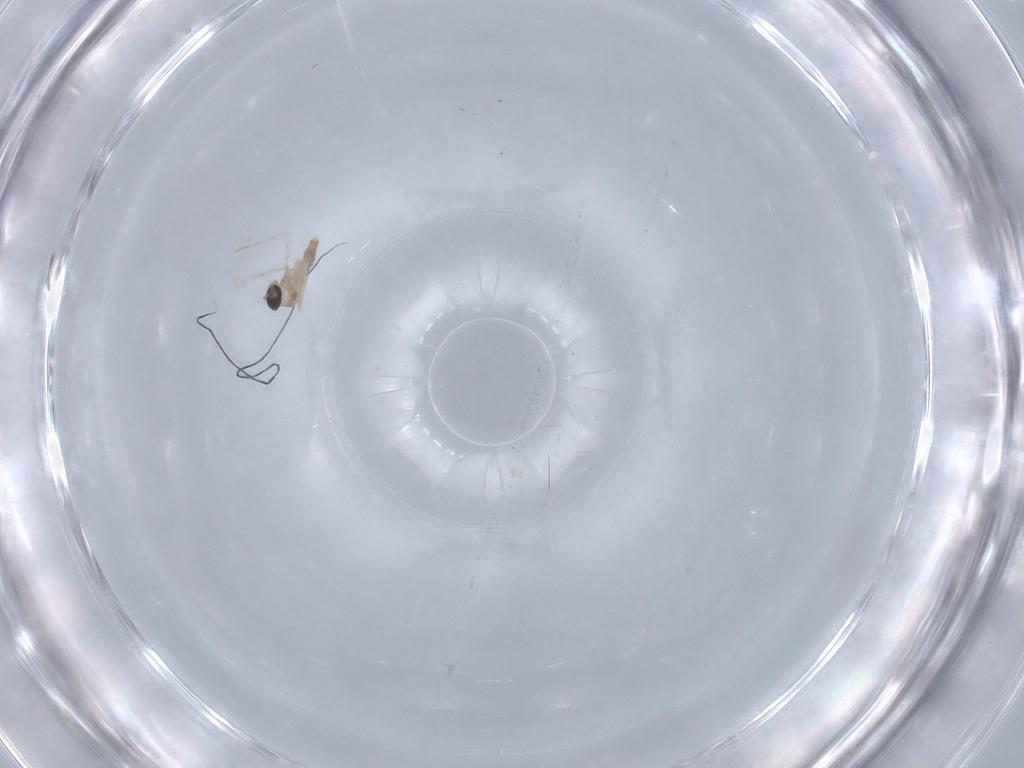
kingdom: Animalia
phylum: Arthropoda
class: Insecta
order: Diptera
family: Cecidomyiidae
